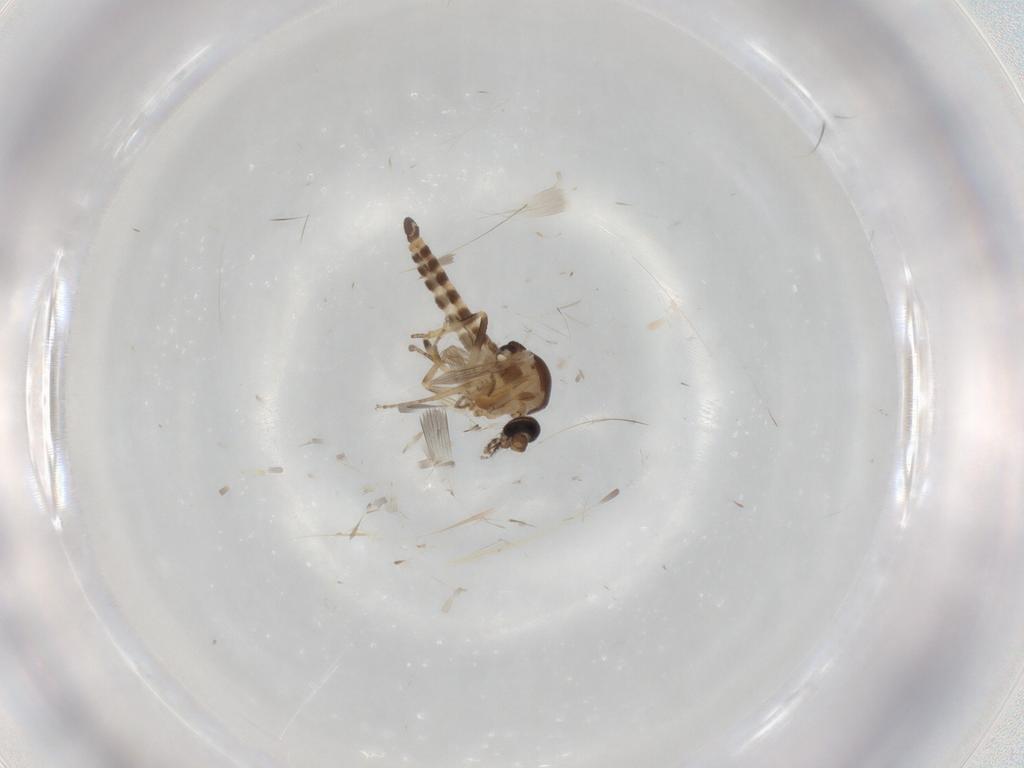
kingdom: Animalia
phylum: Arthropoda
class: Insecta
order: Diptera
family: Ceratopogonidae
